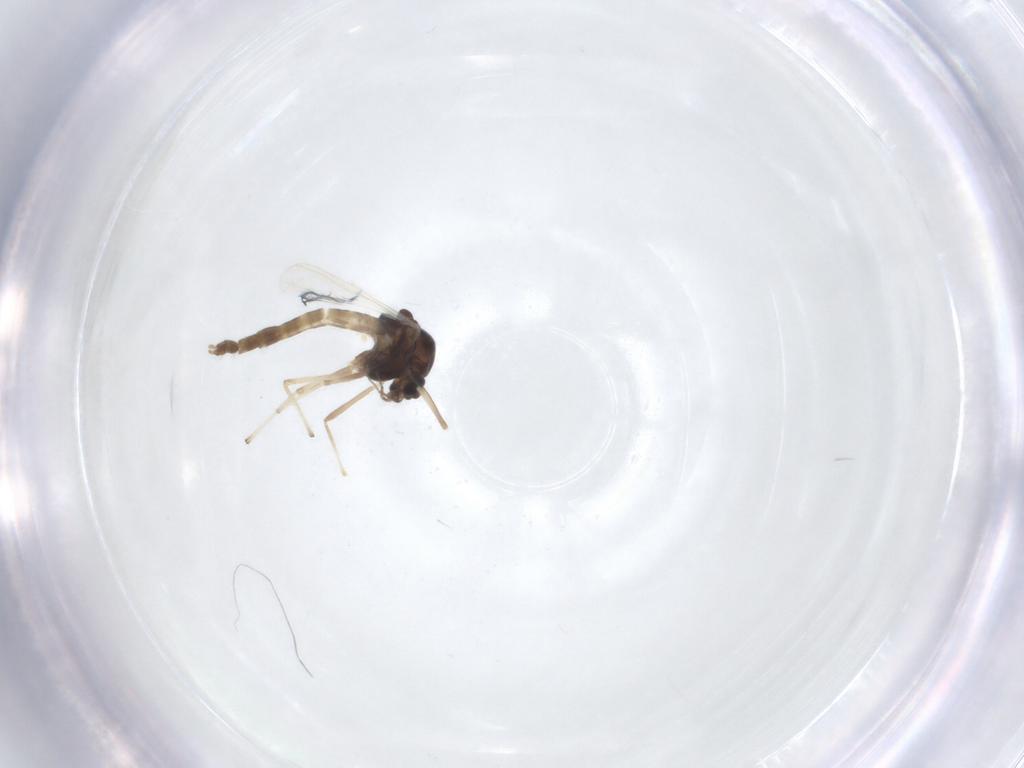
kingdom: Animalia
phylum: Arthropoda
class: Insecta
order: Diptera
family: Chironomidae
